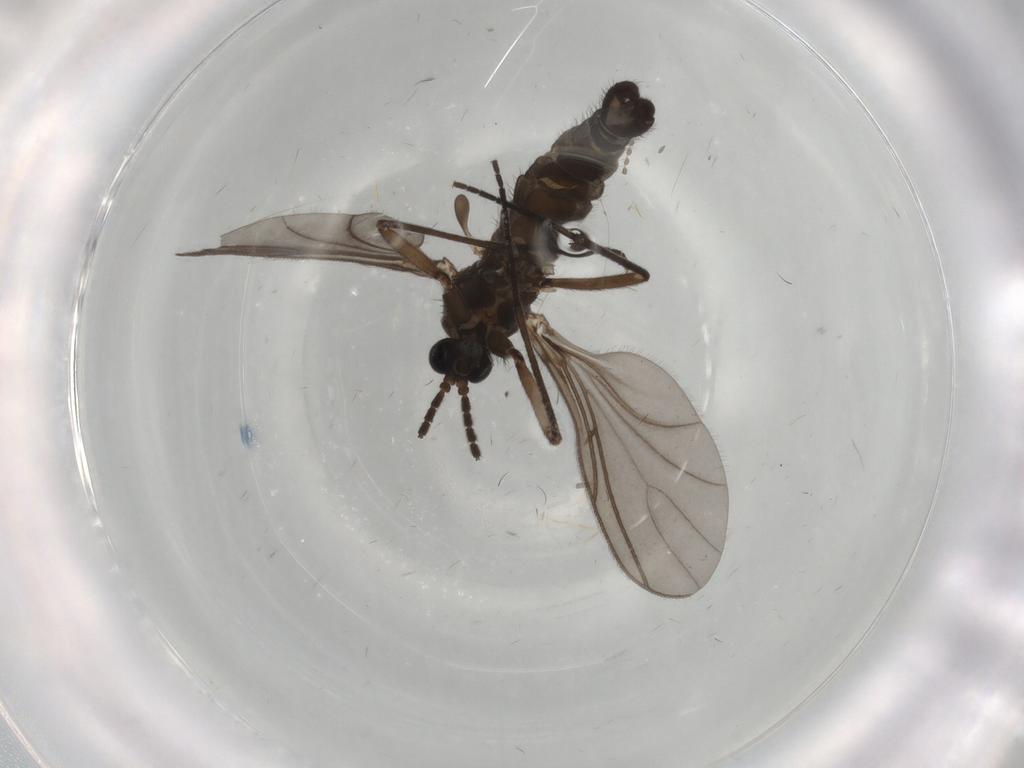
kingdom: Animalia
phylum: Arthropoda
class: Insecta
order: Diptera
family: Sciaridae
